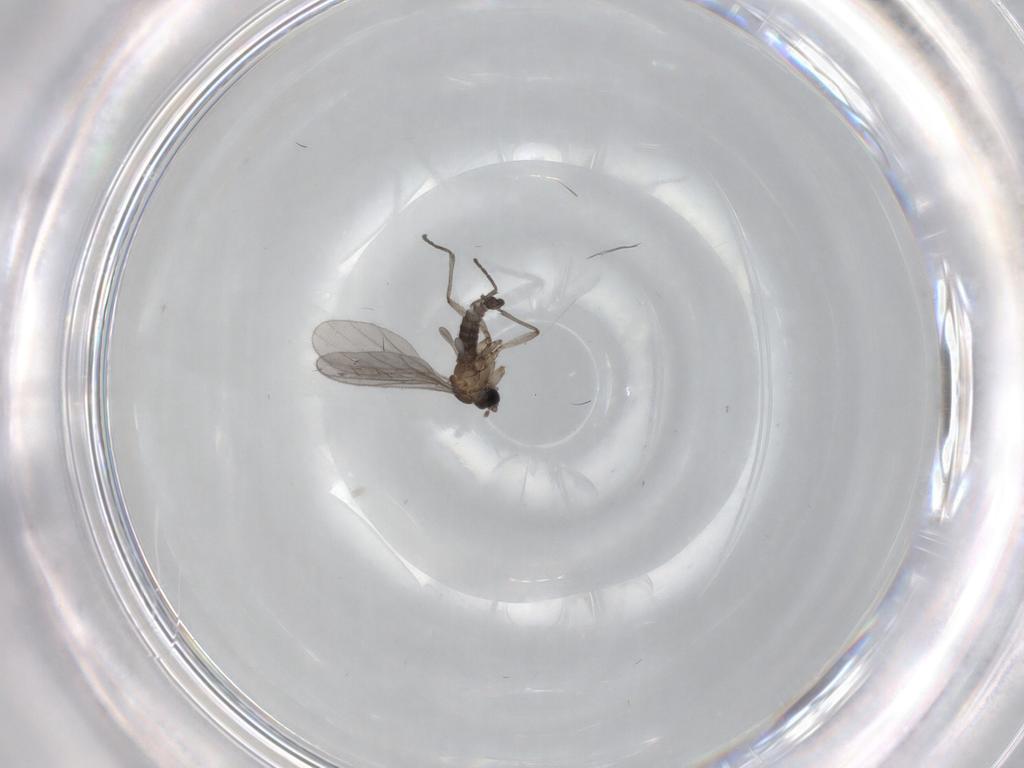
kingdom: Animalia
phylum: Arthropoda
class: Insecta
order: Diptera
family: Sciaridae
